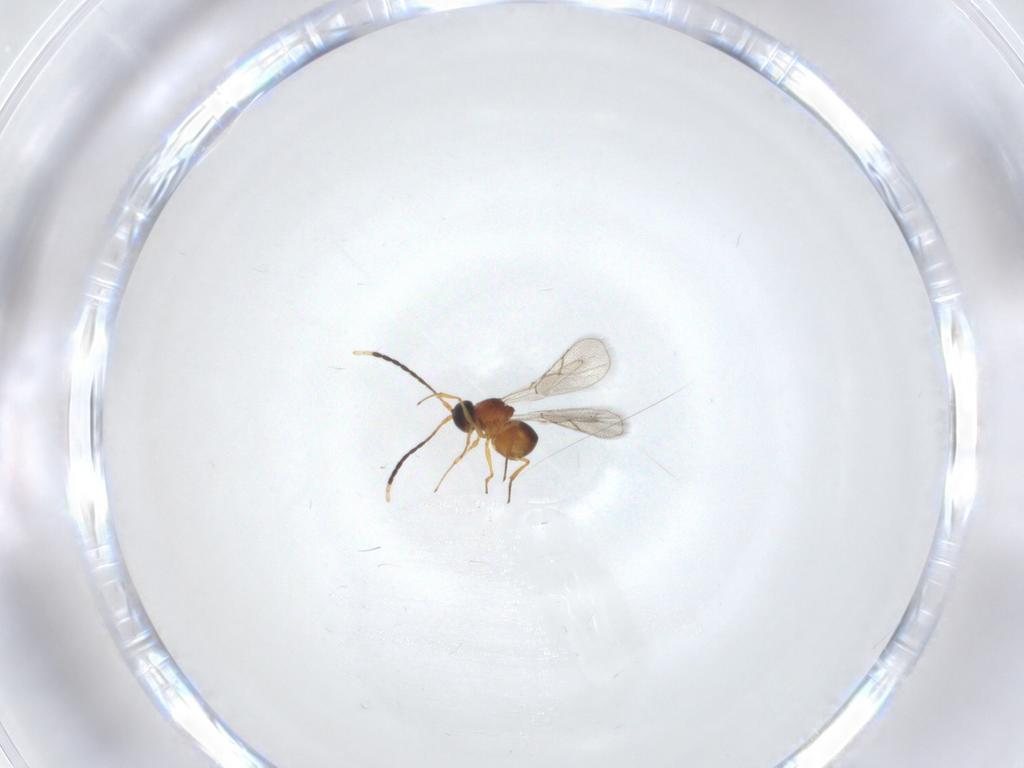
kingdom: Animalia
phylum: Arthropoda
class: Insecta
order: Hymenoptera
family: Figitidae
